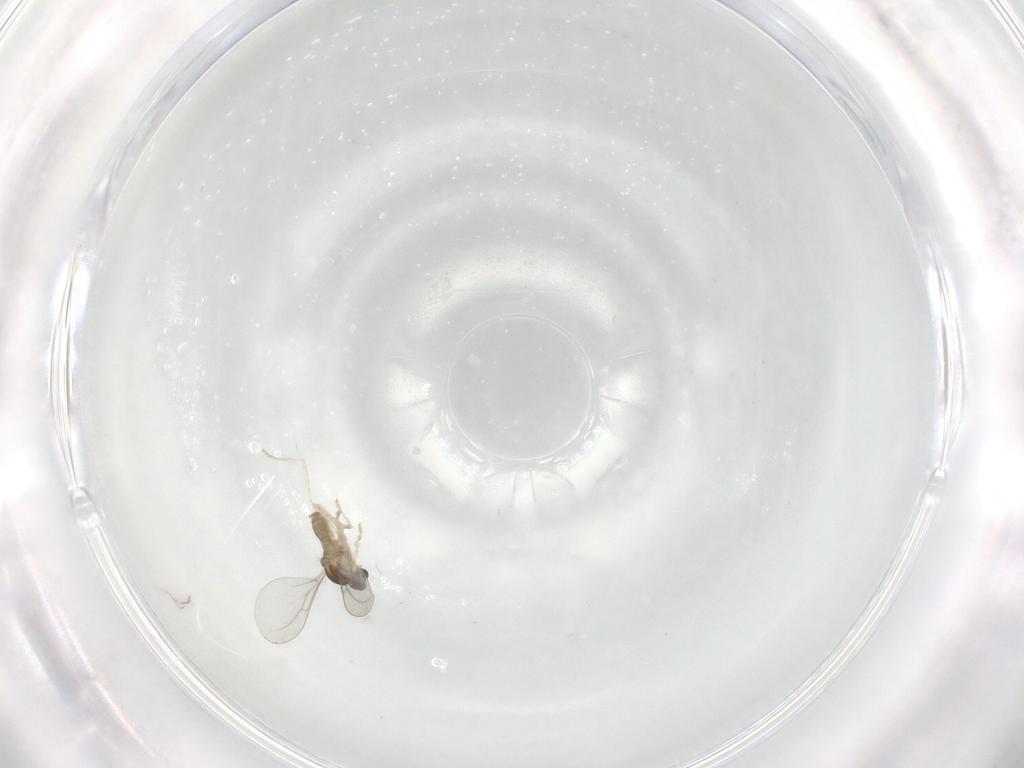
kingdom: Animalia
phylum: Arthropoda
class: Insecta
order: Diptera
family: Cecidomyiidae
